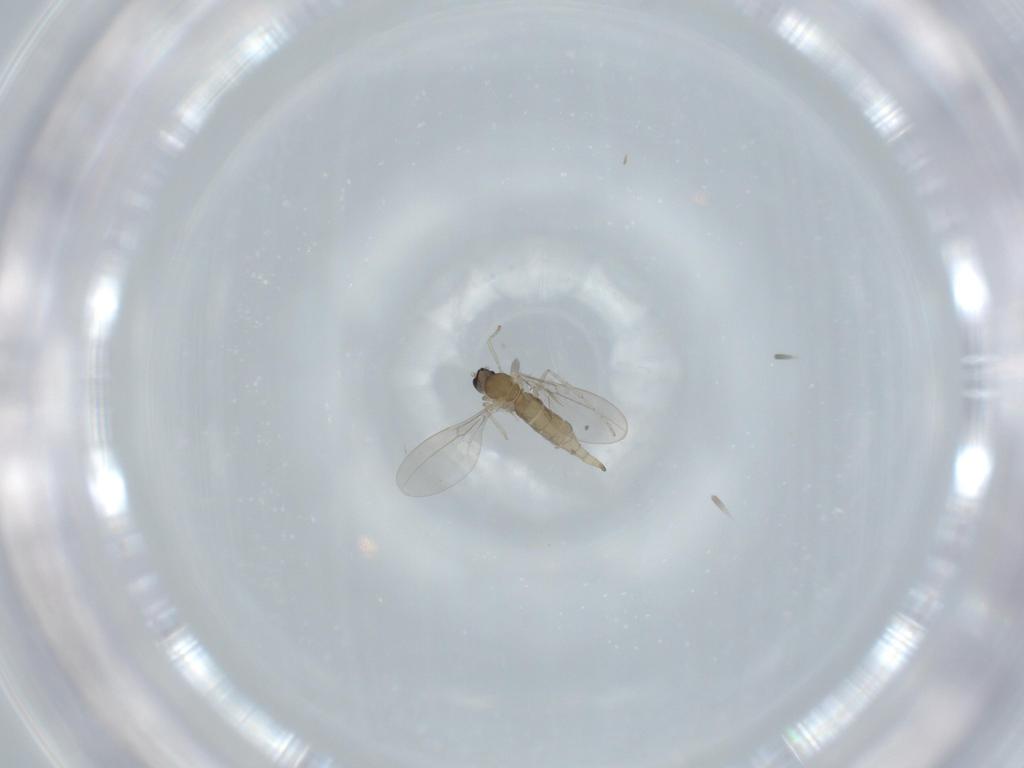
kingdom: Animalia
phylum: Arthropoda
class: Insecta
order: Diptera
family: Cecidomyiidae
